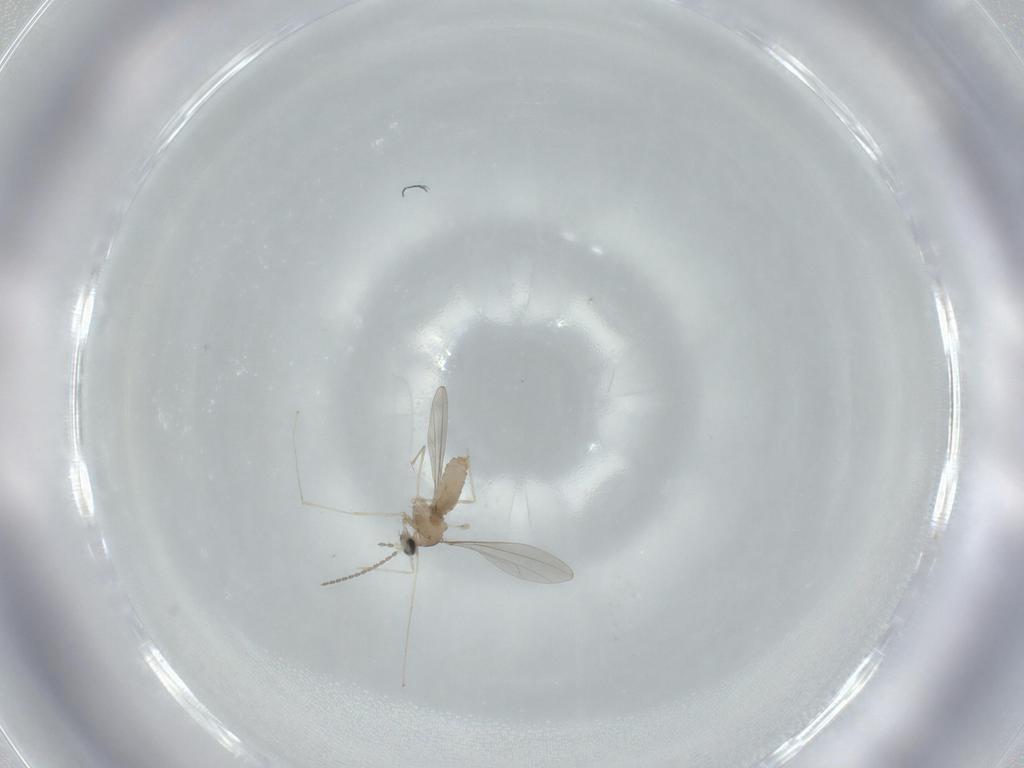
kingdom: Animalia
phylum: Arthropoda
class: Insecta
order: Diptera
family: Cecidomyiidae
